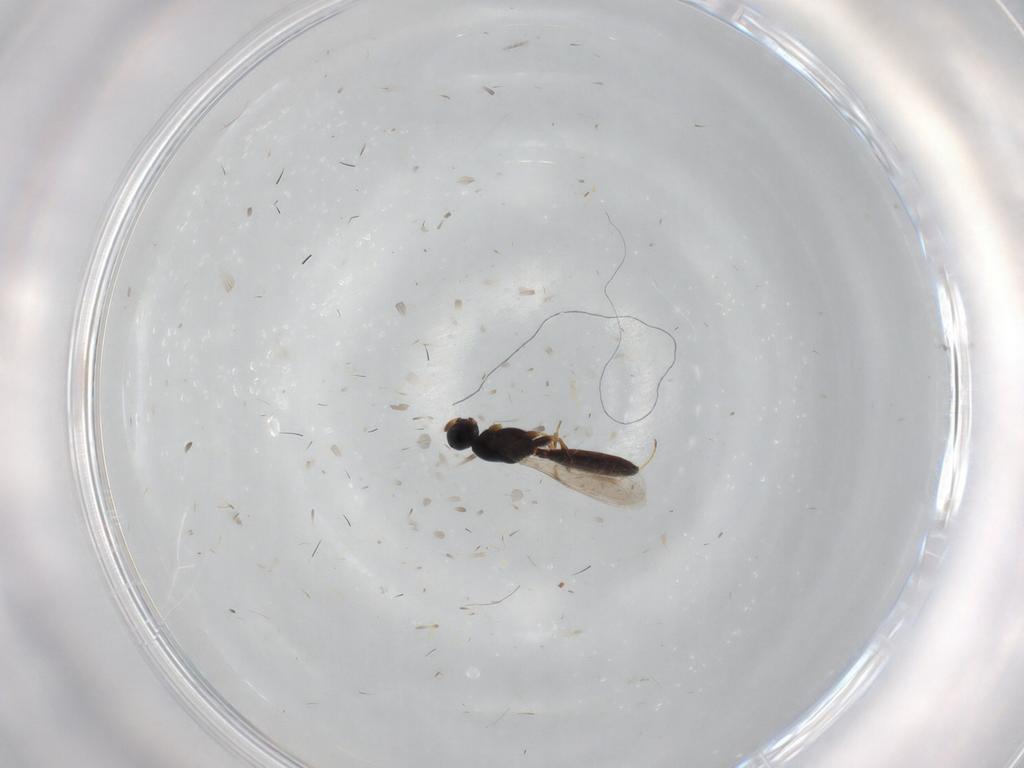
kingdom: Animalia
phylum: Arthropoda
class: Insecta
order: Hymenoptera
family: Scelionidae
